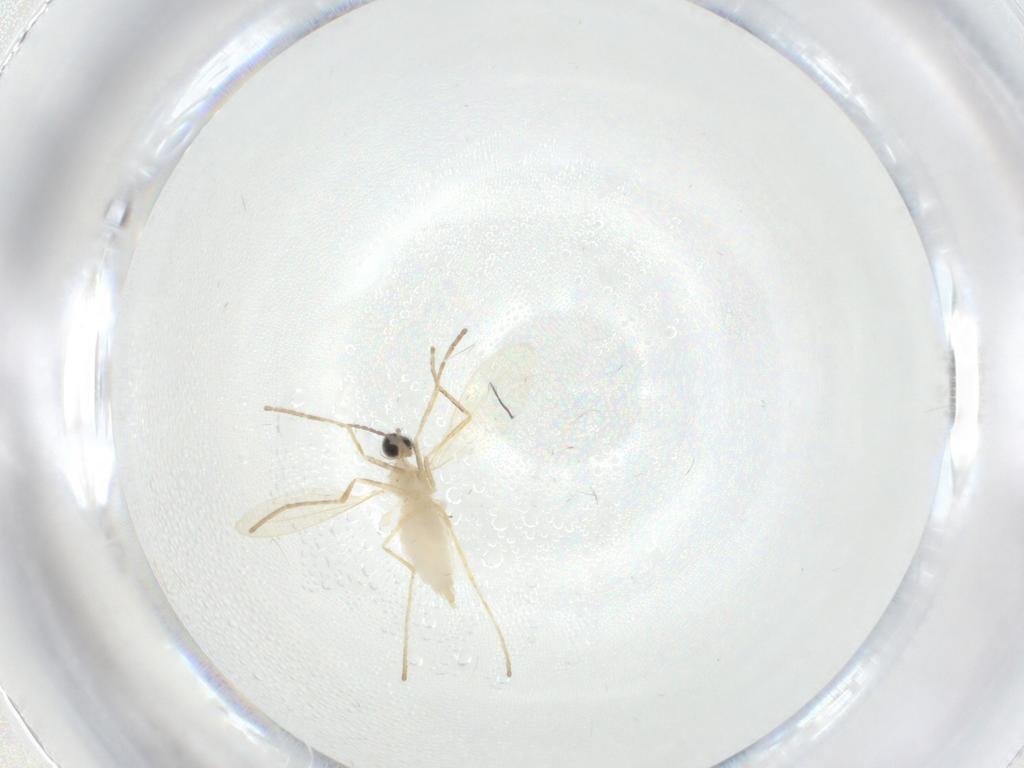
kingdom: Animalia
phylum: Arthropoda
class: Insecta
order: Diptera
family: Cecidomyiidae
